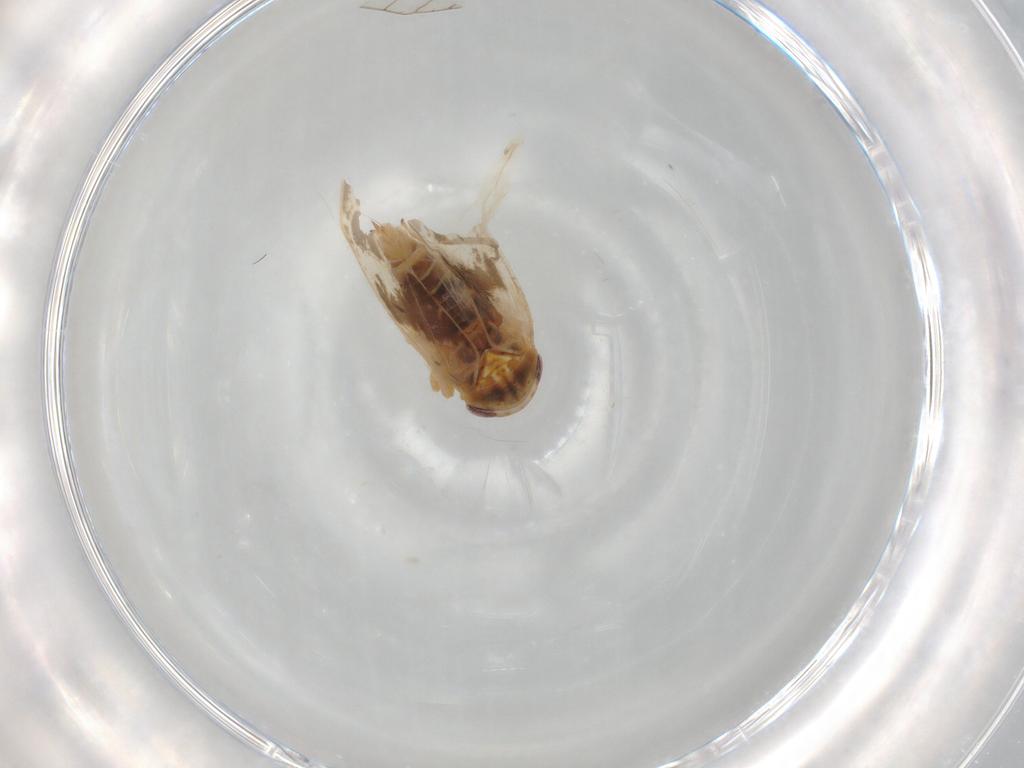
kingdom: Animalia
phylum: Arthropoda
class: Insecta
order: Hemiptera
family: Cicadellidae
